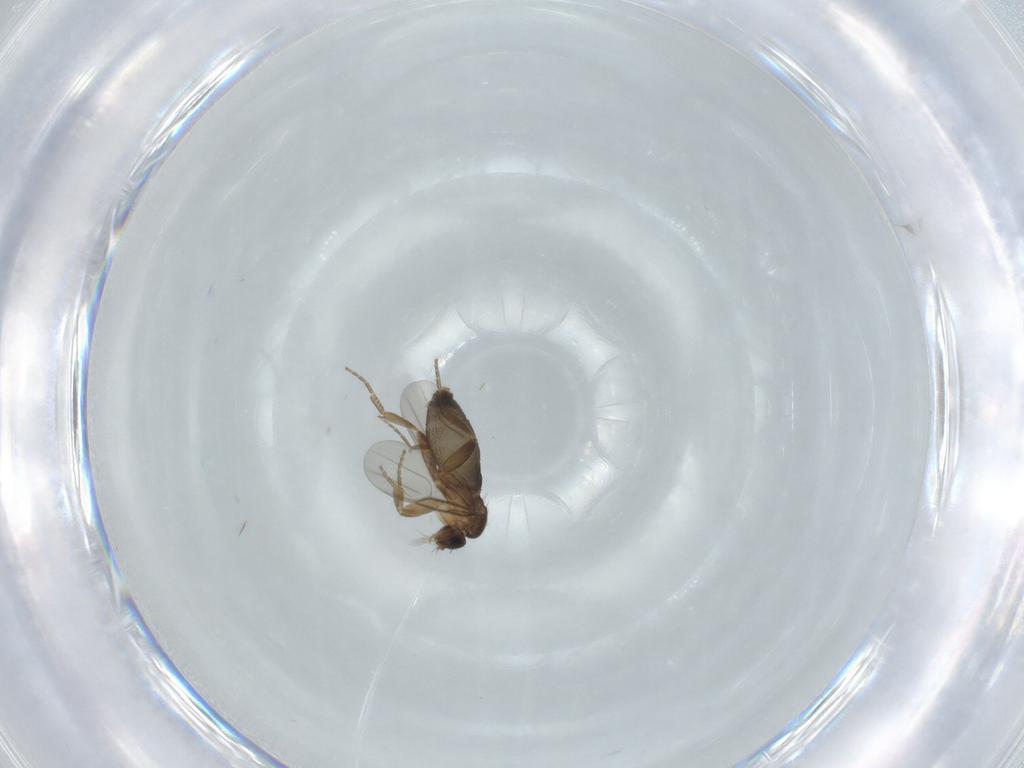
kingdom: Animalia
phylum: Arthropoda
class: Insecta
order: Diptera
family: Phoridae
